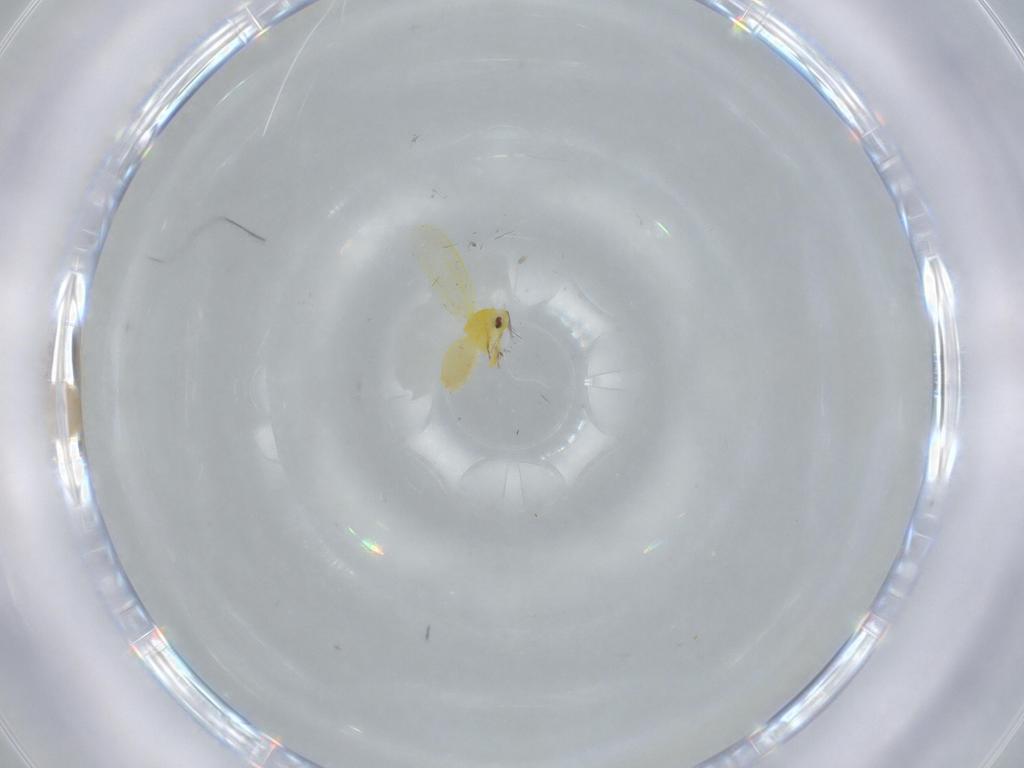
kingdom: Animalia
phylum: Arthropoda
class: Insecta
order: Hemiptera
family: Aleyrodidae
